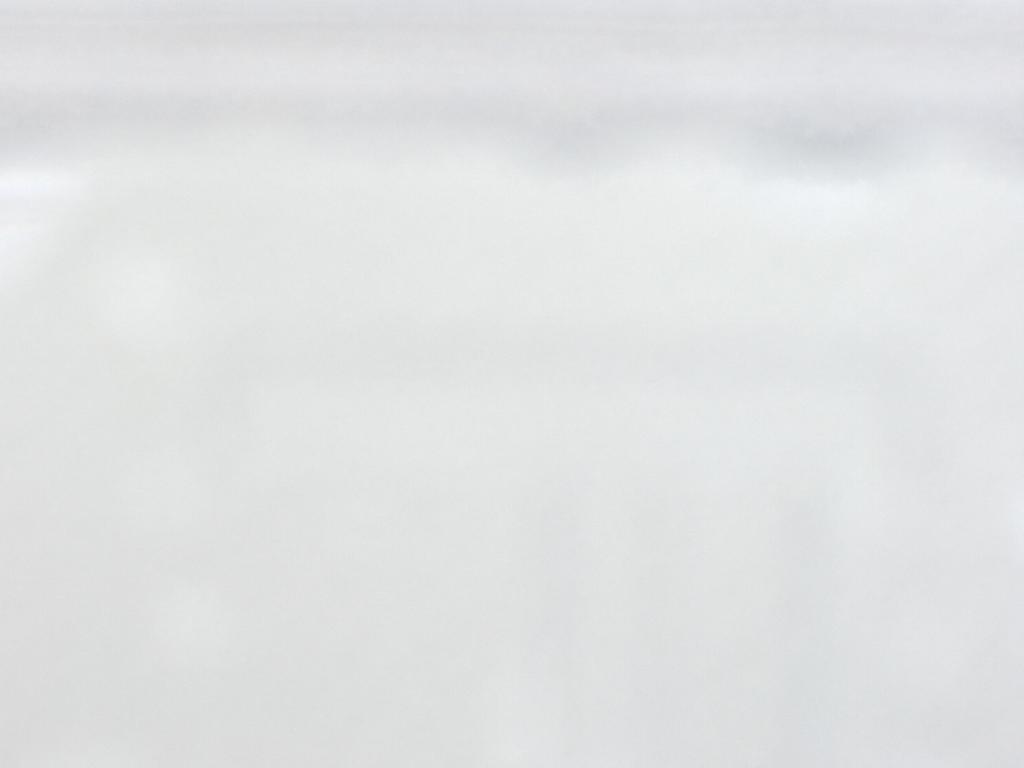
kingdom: Animalia
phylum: Arthropoda
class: Insecta
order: Diptera
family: Cecidomyiidae
